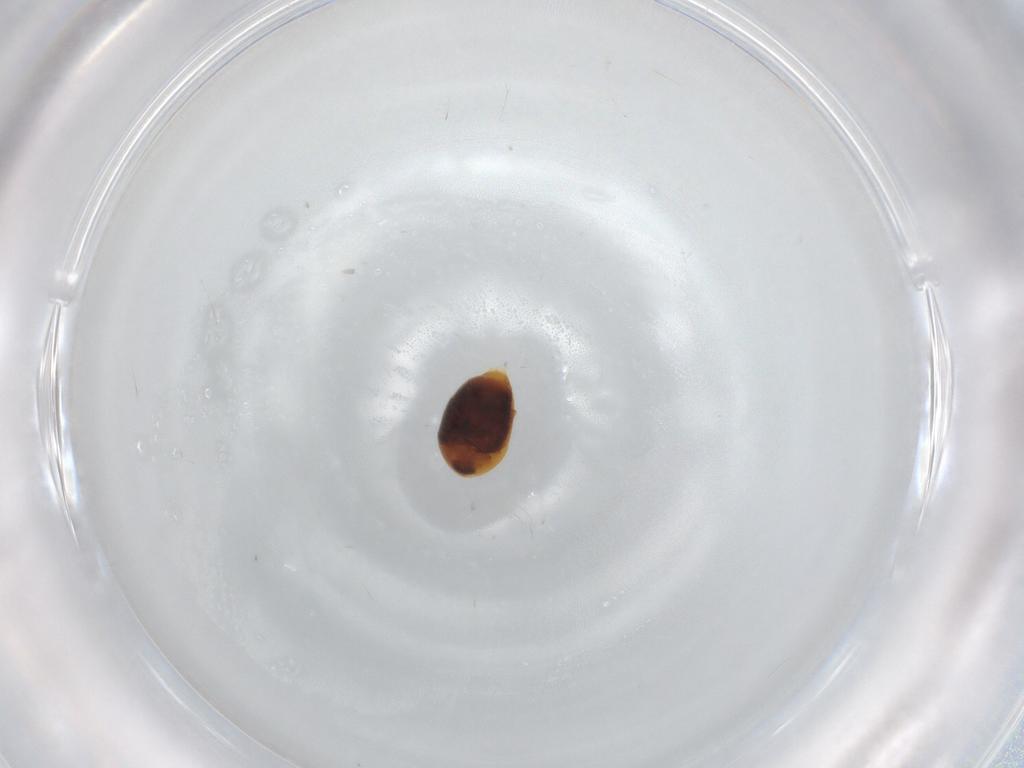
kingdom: Animalia
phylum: Arthropoda
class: Insecta
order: Coleoptera
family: Corylophidae
